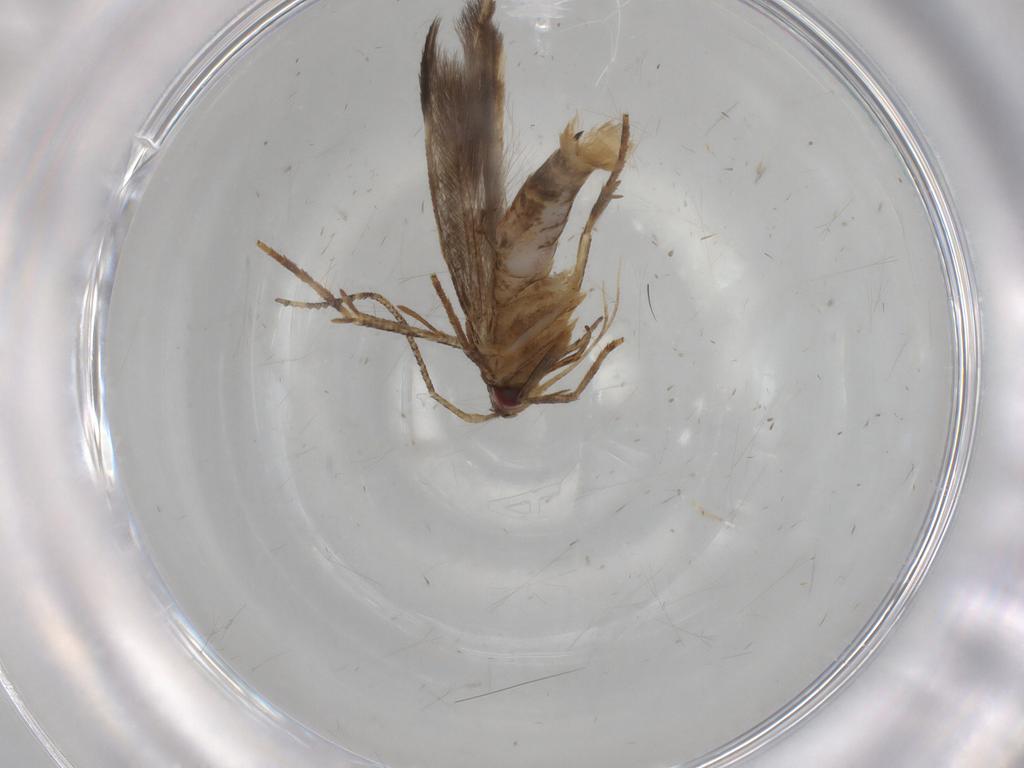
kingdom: Animalia
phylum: Arthropoda
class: Insecta
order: Lepidoptera
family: Cosmopterigidae
